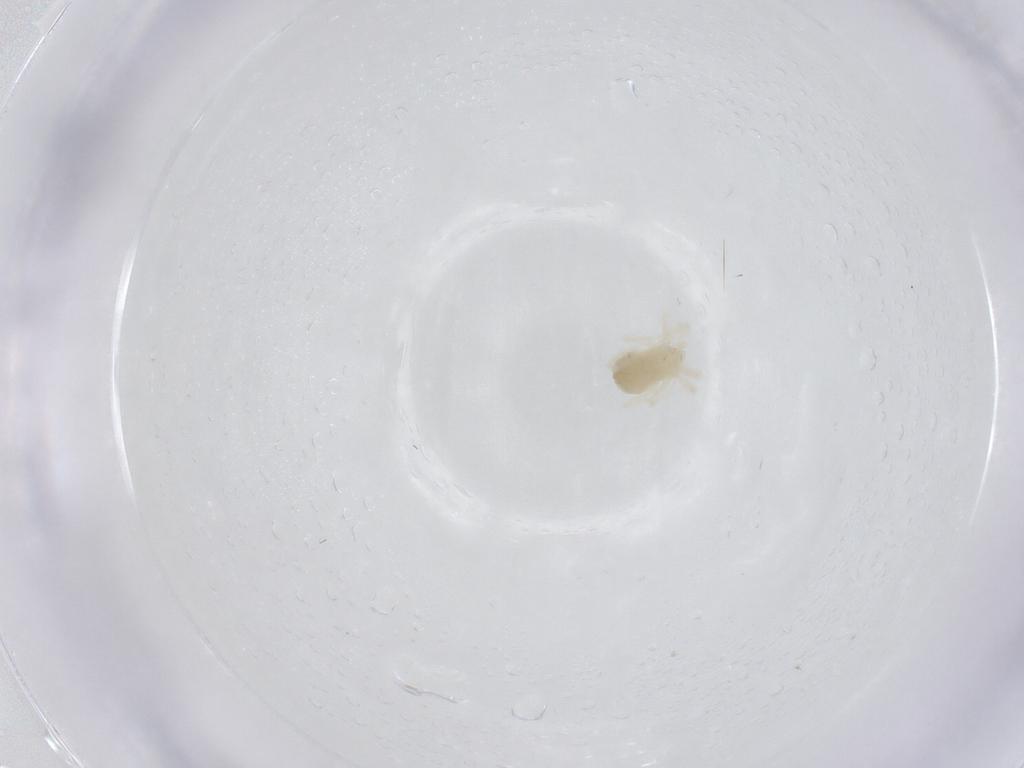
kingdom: Animalia
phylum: Arthropoda
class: Arachnida
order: Trombidiformes
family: Anystidae
